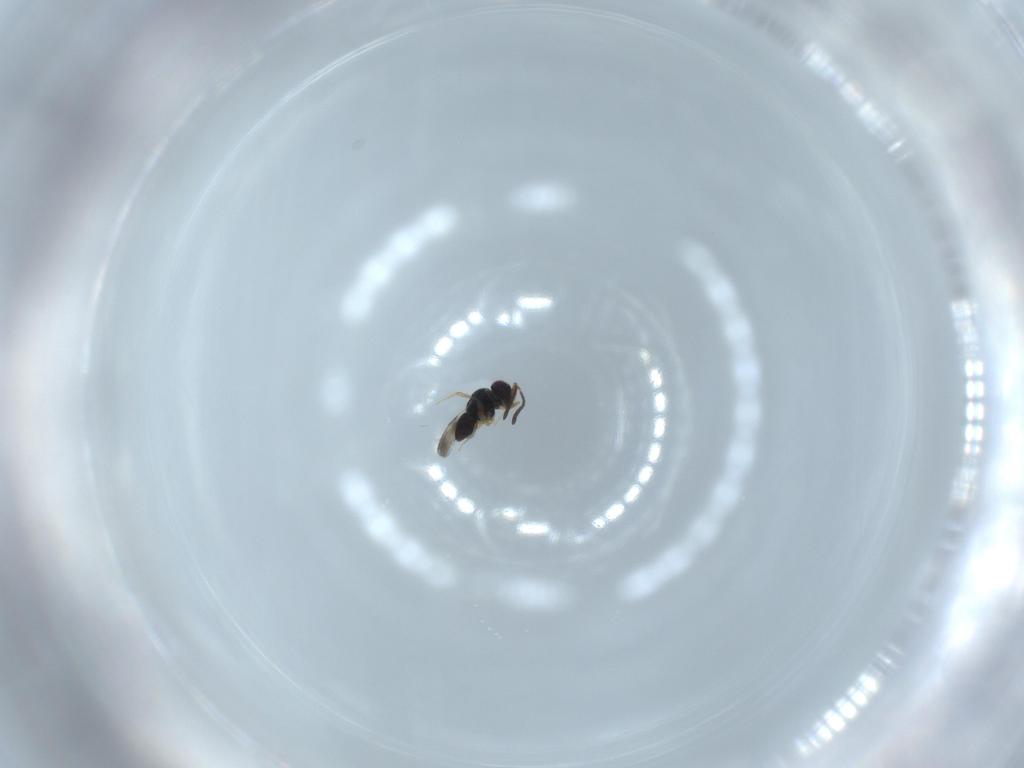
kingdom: Animalia
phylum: Arthropoda
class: Insecta
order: Hymenoptera
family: Ceraphronidae
